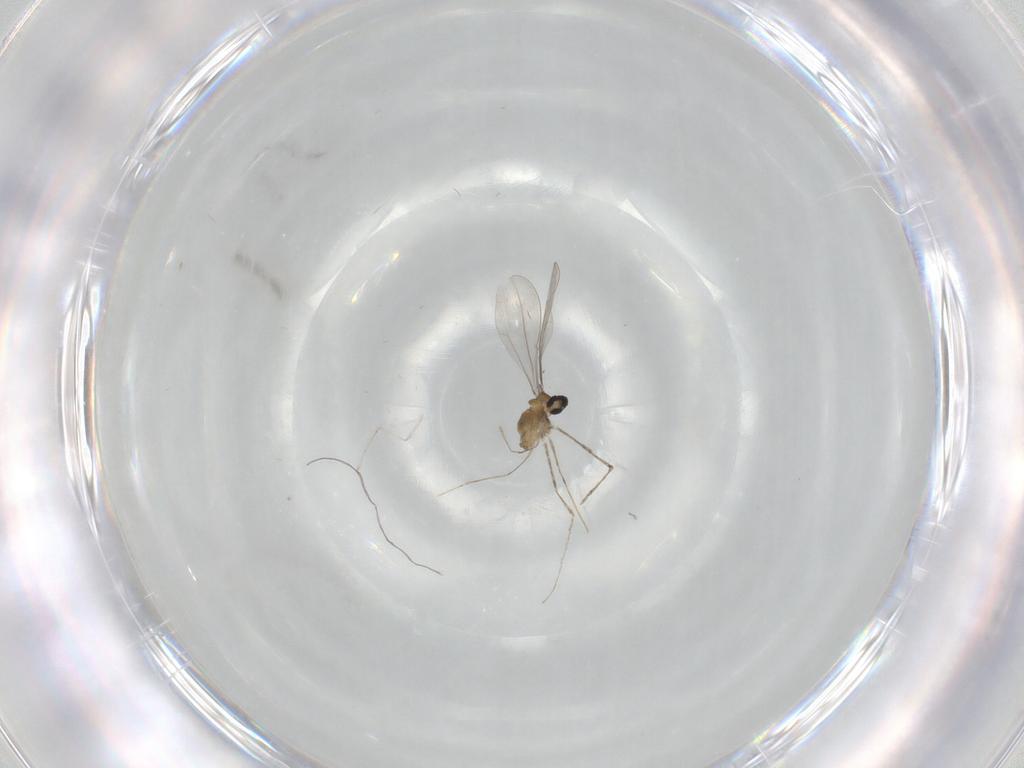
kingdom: Animalia
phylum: Arthropoda
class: Insecta
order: Diptera
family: Cecidomyiidae
